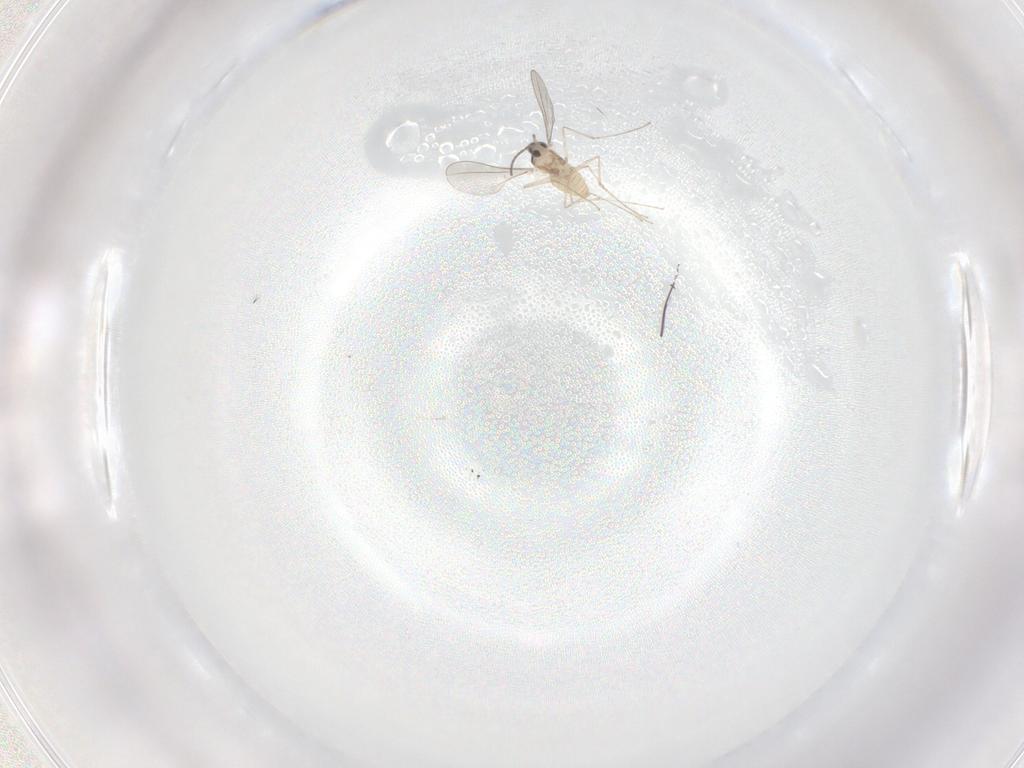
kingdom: Animalia
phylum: Arthropoda
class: Insecta
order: Diptera
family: Cecidomyiidae
